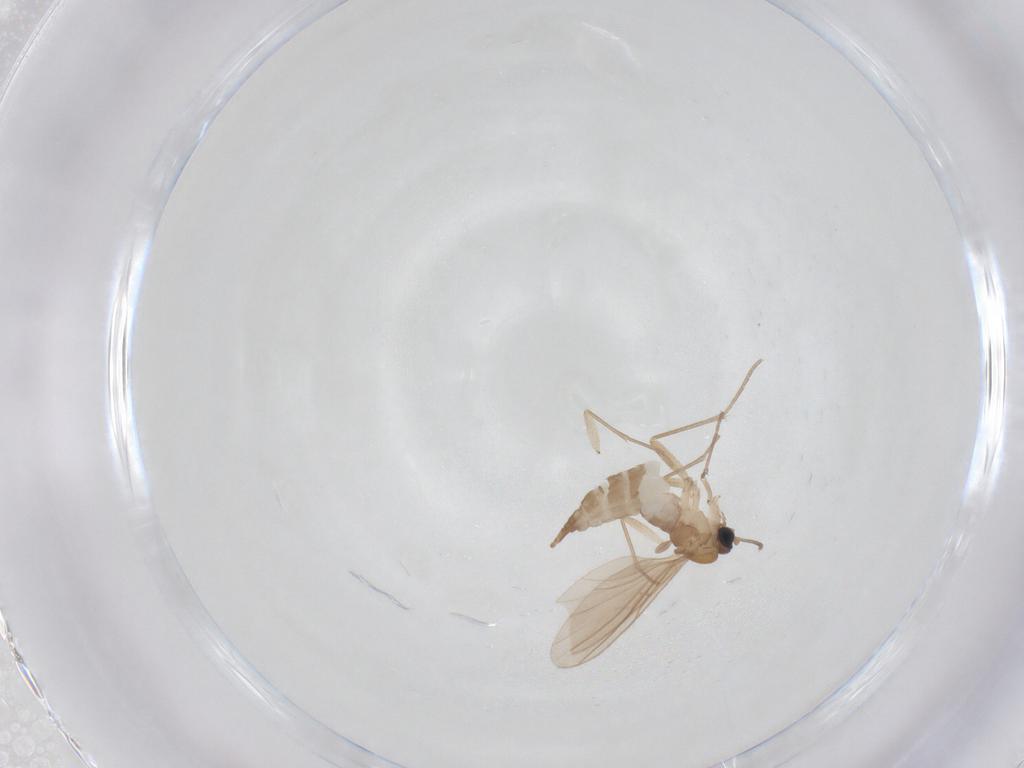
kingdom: Animalia
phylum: Arthropoda
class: Insecta
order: Diptera
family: Sciaridae
